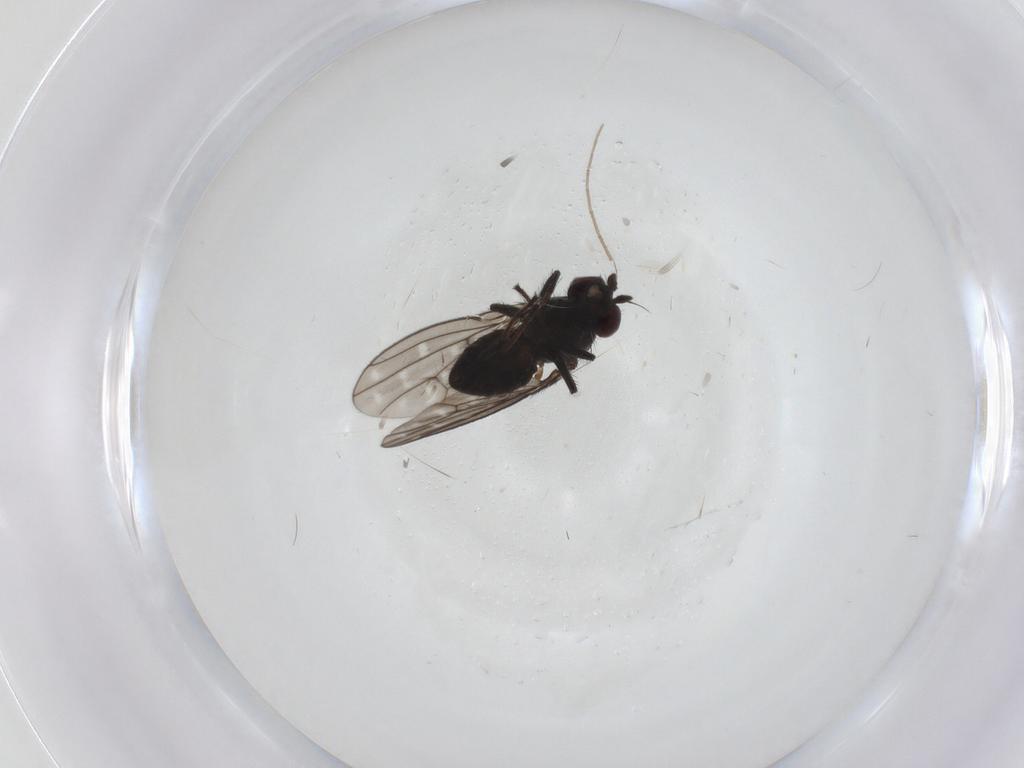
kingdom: Animalia
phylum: Arthropoda
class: Insecta
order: Diptera
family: Ephydridae
